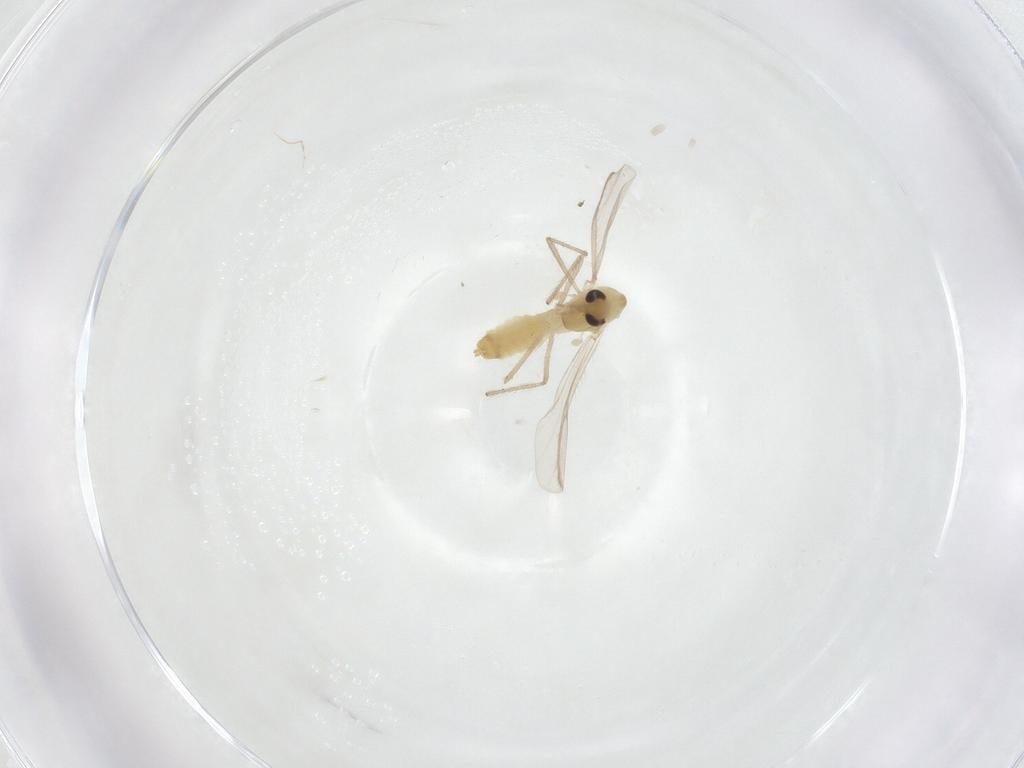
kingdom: Animalia
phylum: Arthropoda
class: Insecta
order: Diptera
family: Chironomidae
